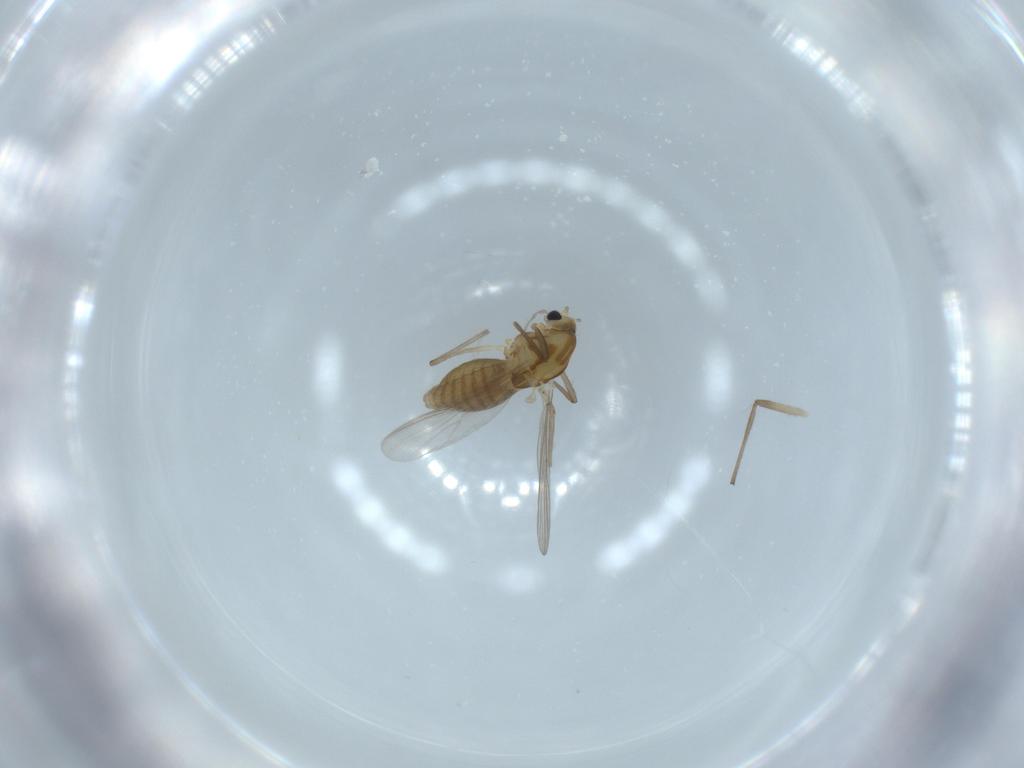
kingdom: Animalia
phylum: Arthropoda
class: Insecta
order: Diptera
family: Chironomidae
